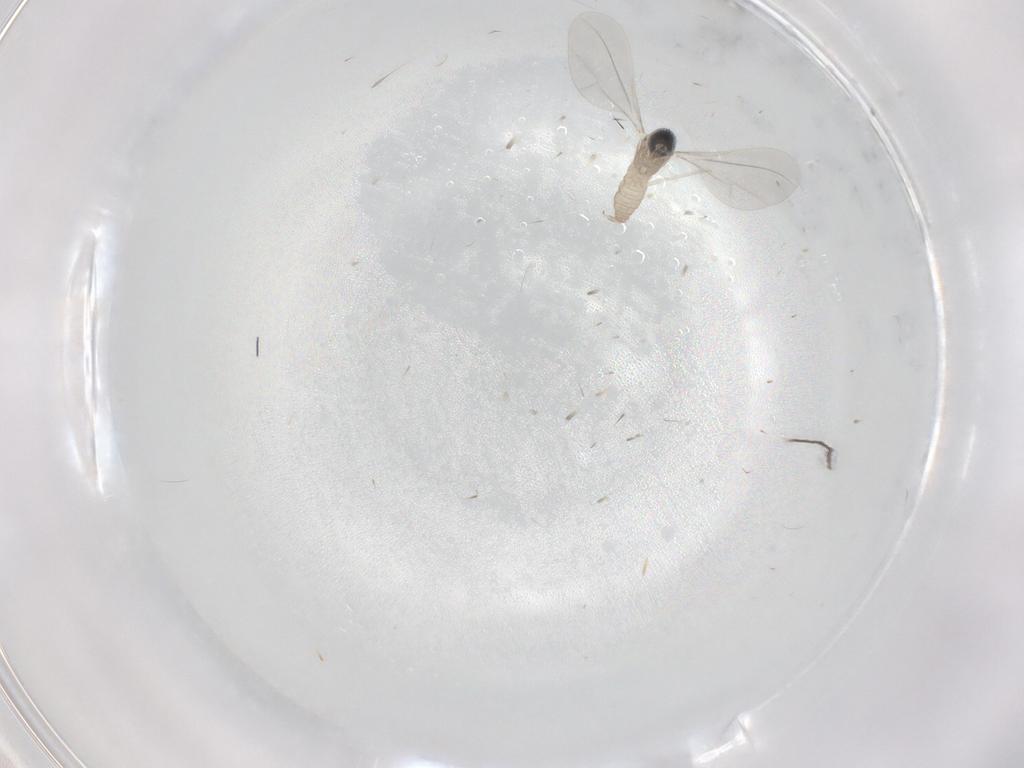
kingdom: Animalia
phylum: Arthropoda
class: Insecta
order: Diptera
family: Cecidomyiidae
